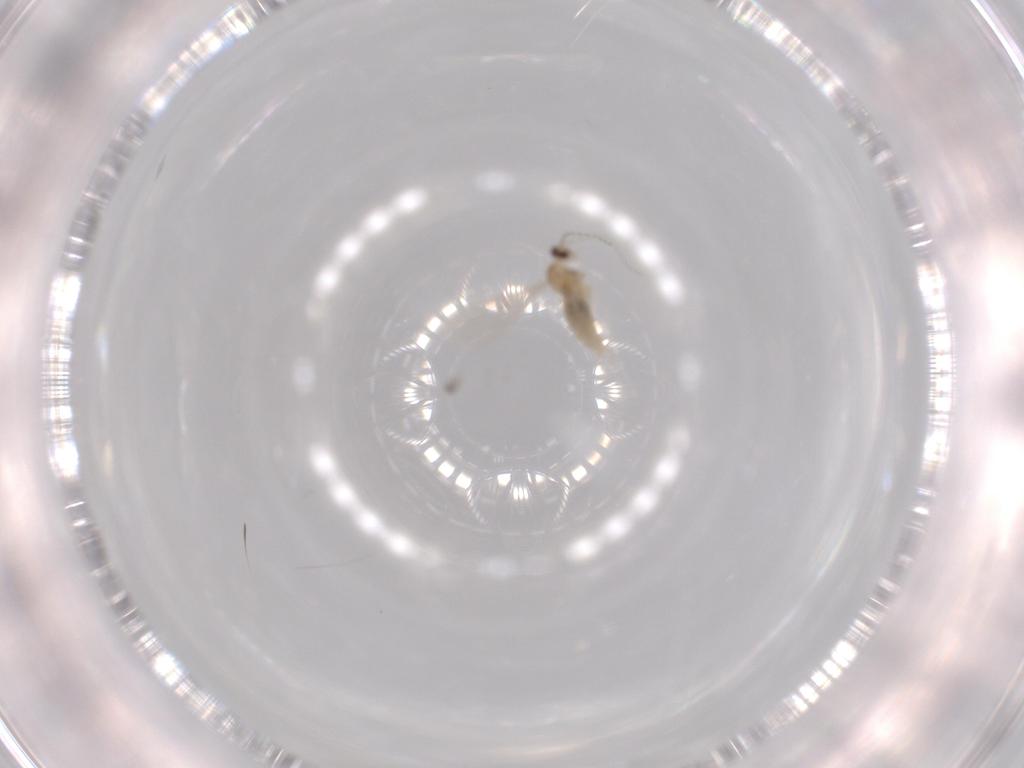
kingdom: Animalia
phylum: Arthropoda
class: Insecta
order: Diptera
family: Cecidomyiidae
